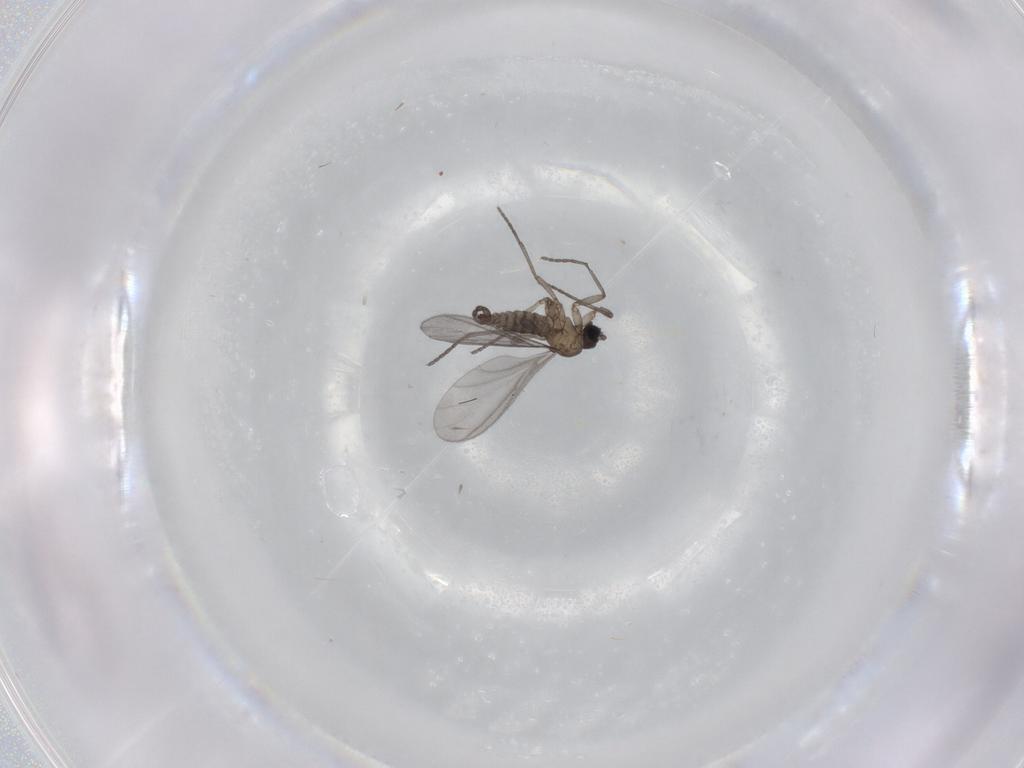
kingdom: Animalia
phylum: Arthropoda
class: Insecta
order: Diptera
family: Sciaridae
